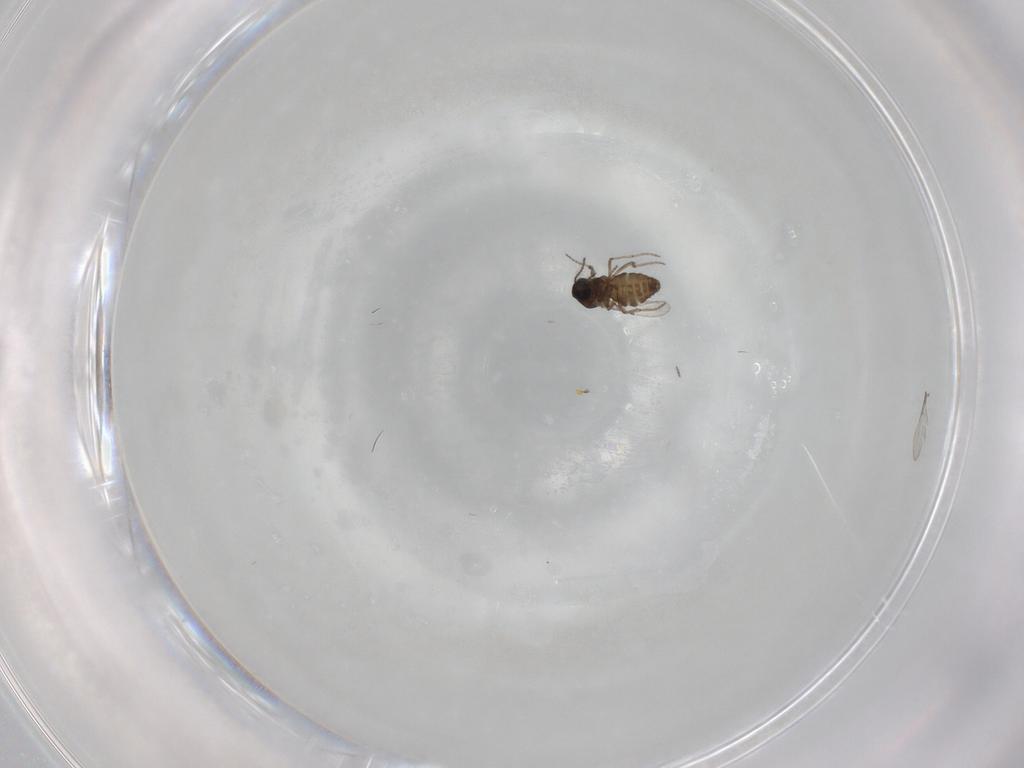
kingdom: Animalia
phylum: Arthropoda
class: Insecta
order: Diptera
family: Ceratopogonidae
